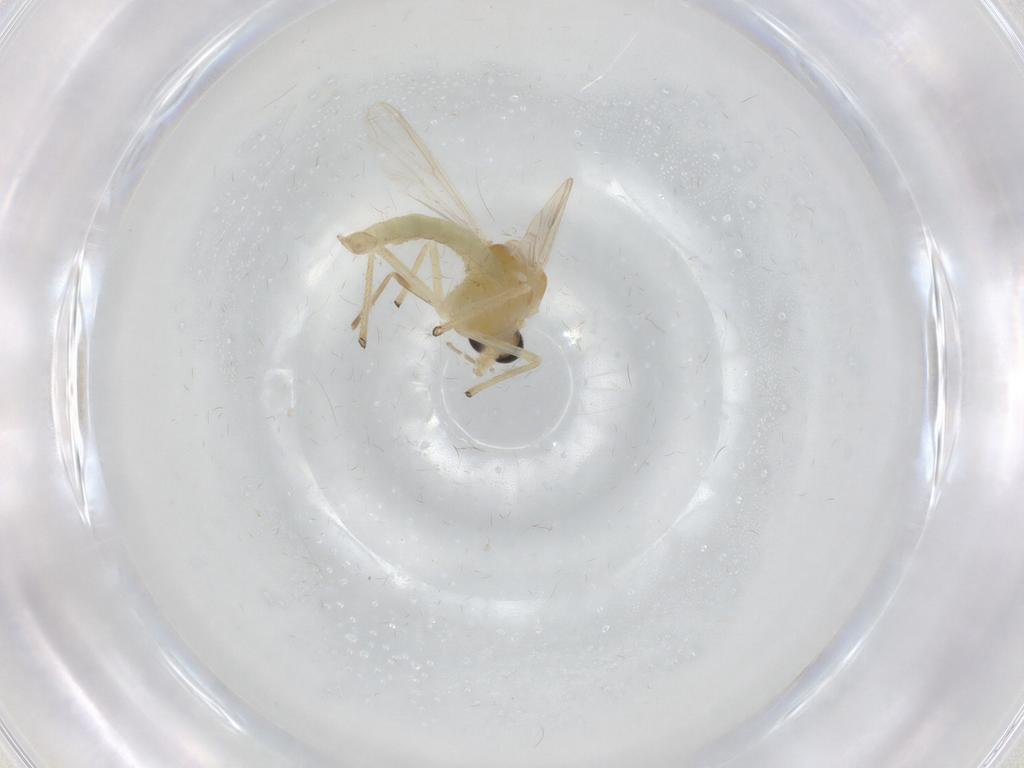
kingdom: Animalia
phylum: Arthropoda
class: Insecta
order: Diptera
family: Chironomidae
